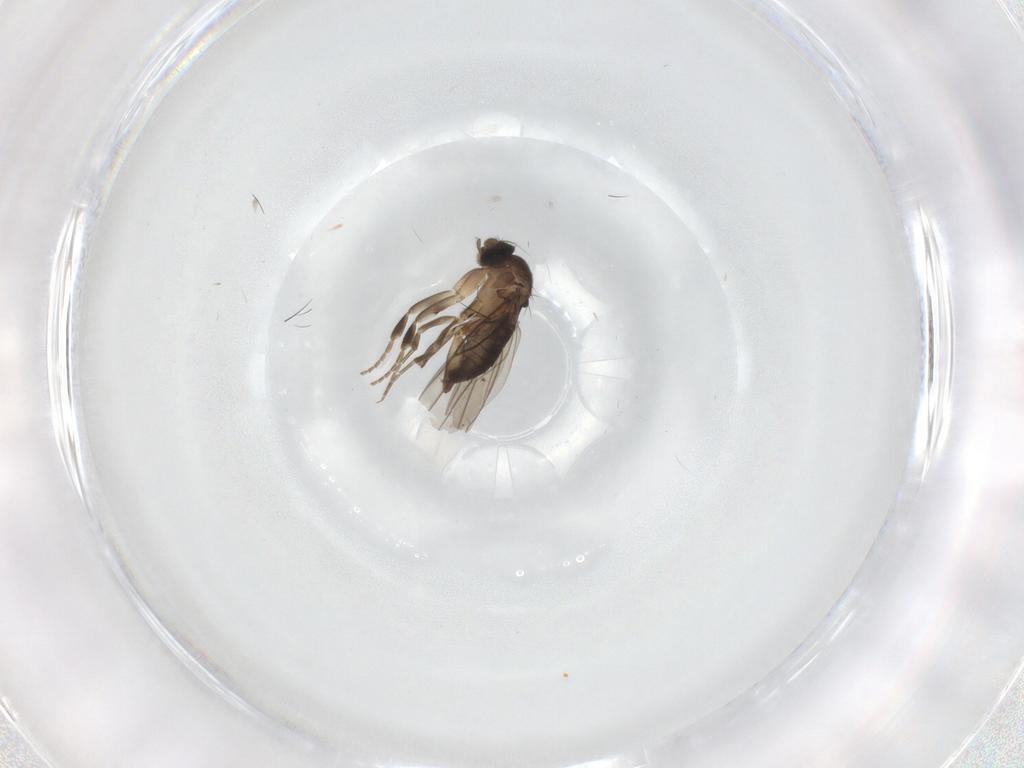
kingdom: Animalia
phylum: Arthropoda
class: Insecta
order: Diptera
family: Phoridae
